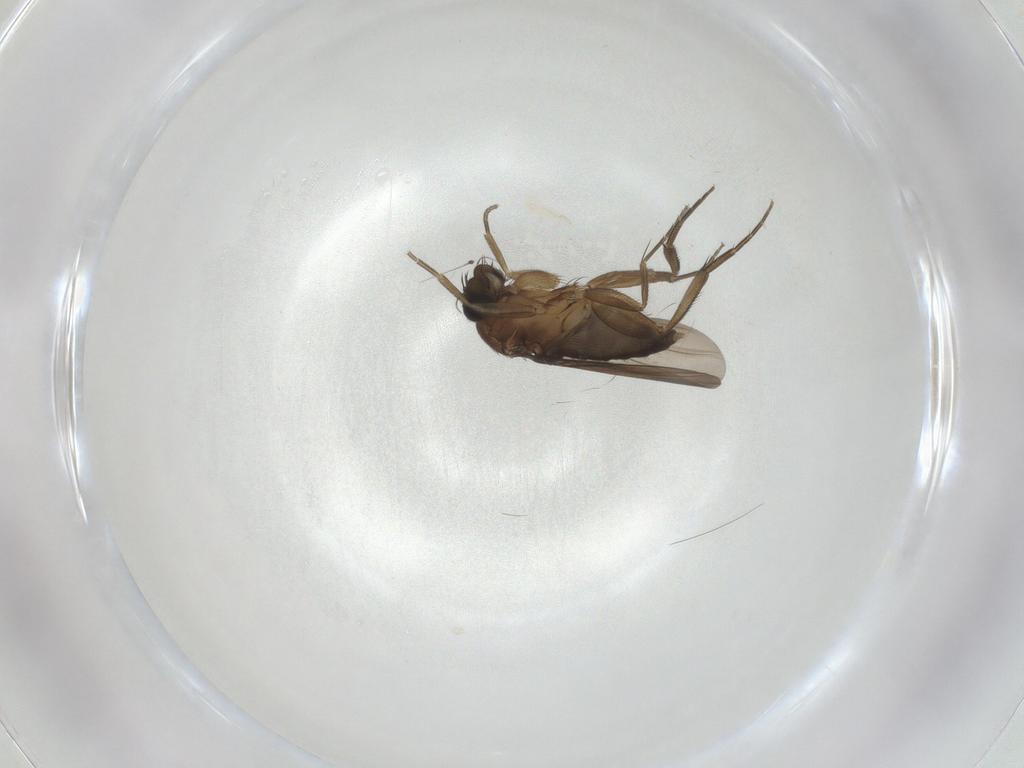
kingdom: Animalia
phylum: Arthropoda
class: Insecta
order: Diptera
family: Phoridae
